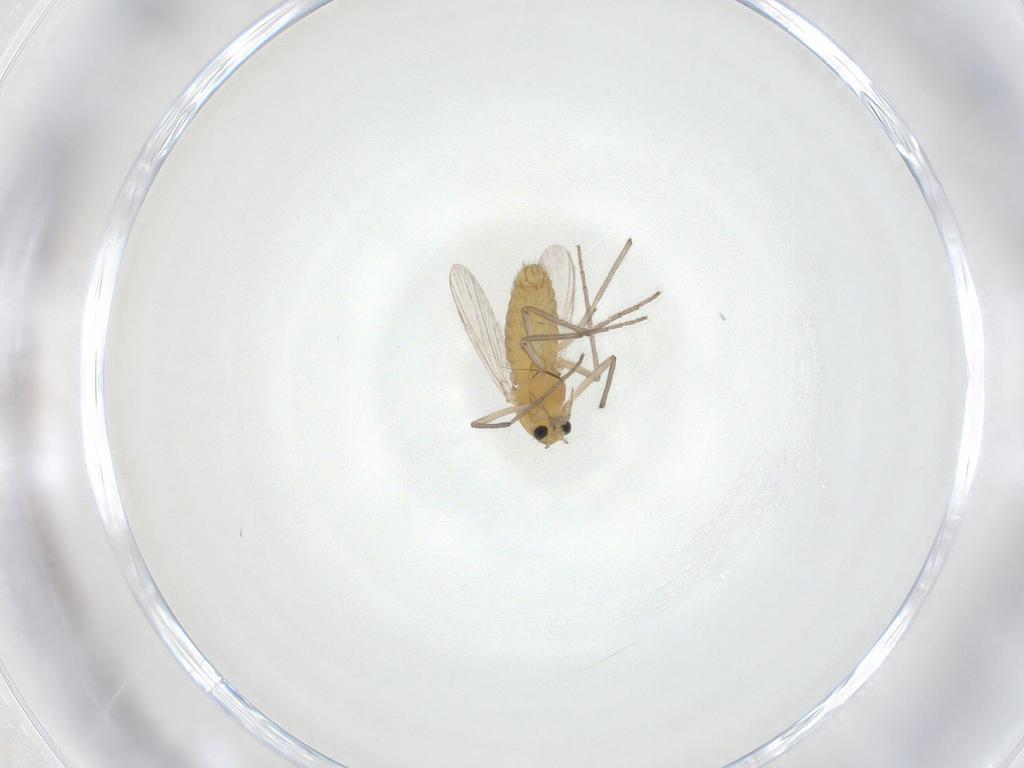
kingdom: Animalia
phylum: Arthropoda
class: Insecta
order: Diptera
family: Chironomidae
